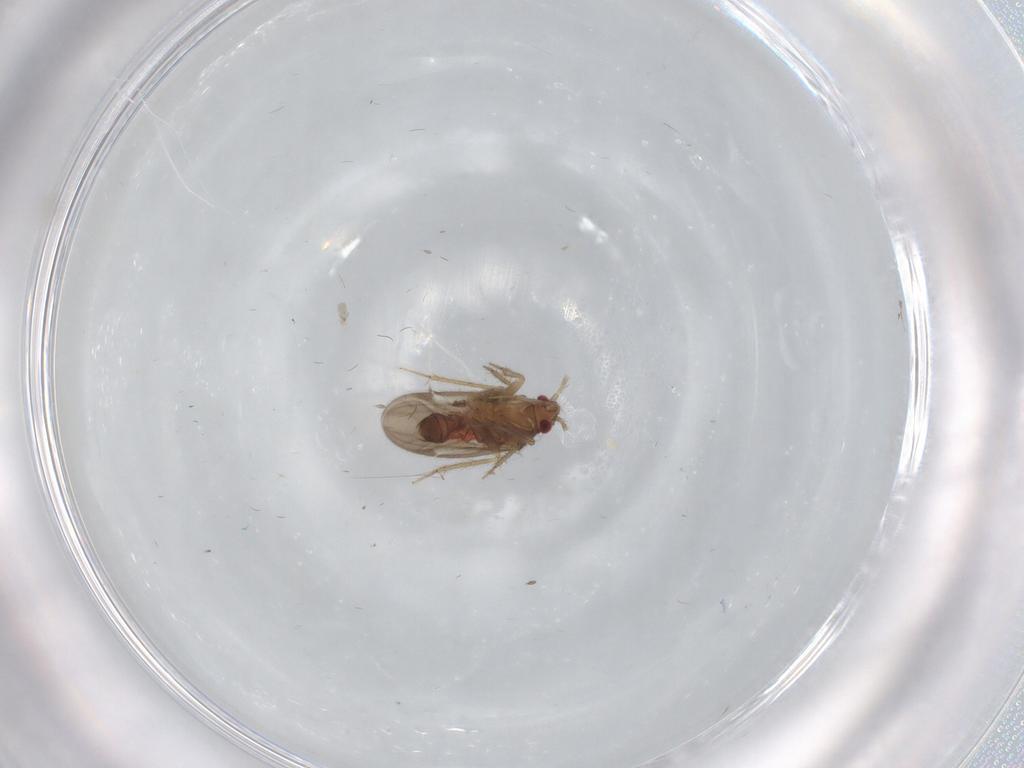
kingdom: Animalia
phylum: Arthropoda
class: Insecta
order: Hemiptera
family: Ceratocombidae
